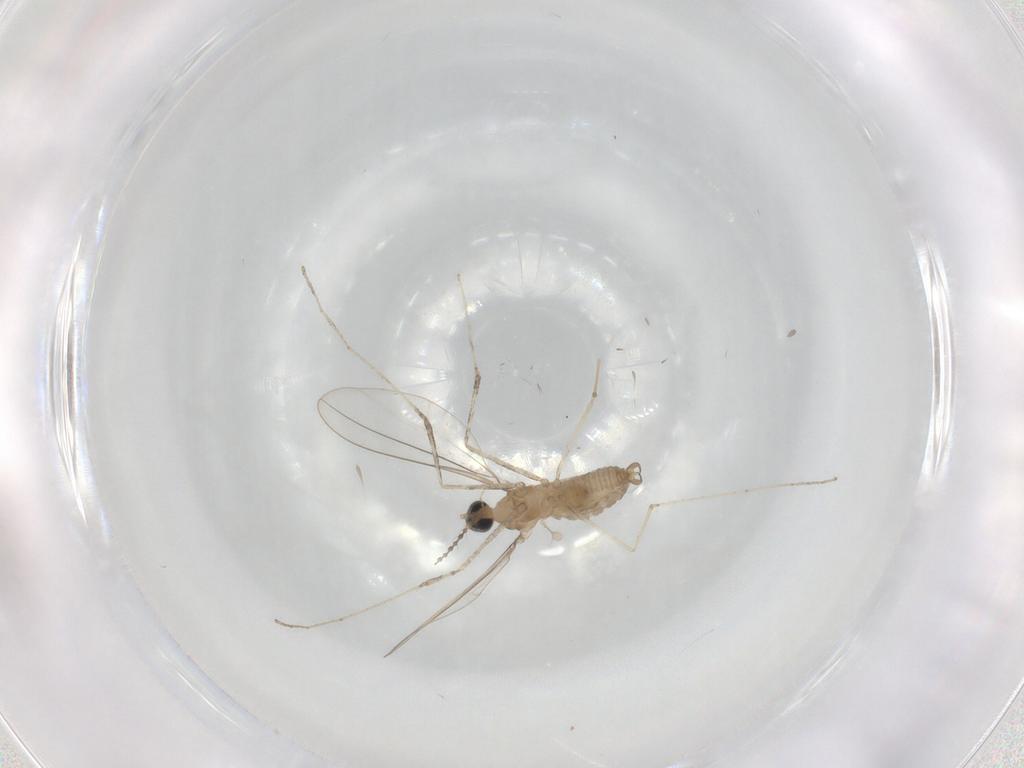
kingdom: Animalia
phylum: Arthropoda
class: Insecta
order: Diptera
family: Cecidomyiidae
